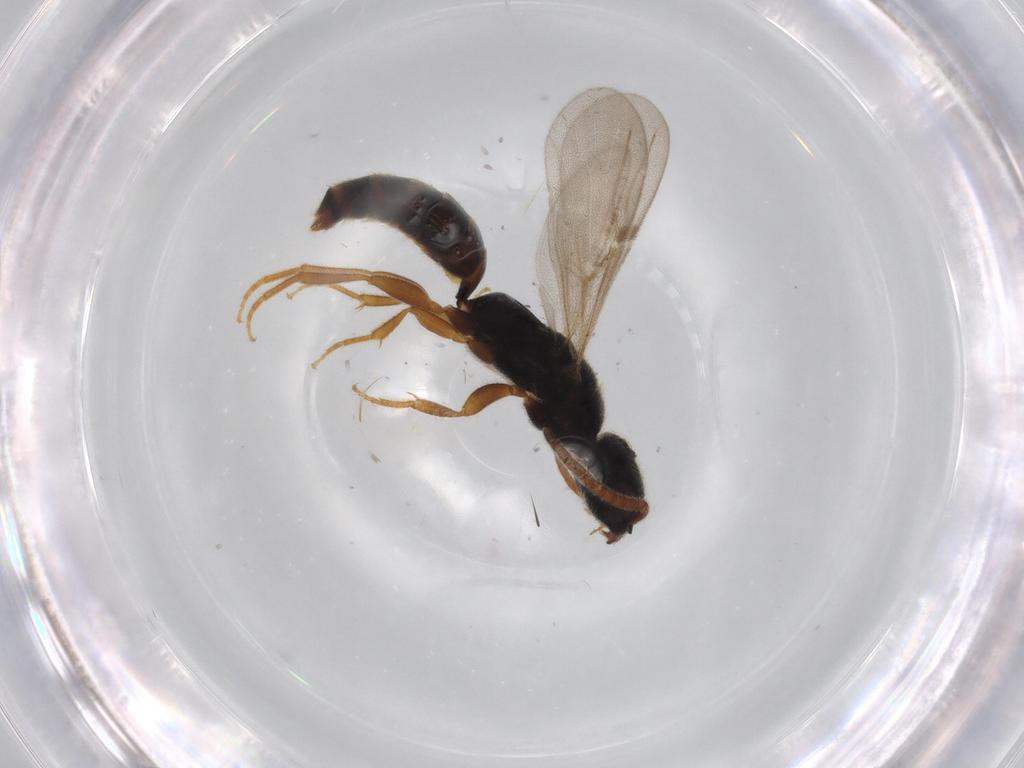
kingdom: Animalia
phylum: Arthropoda
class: Insecta
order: Hymenoptera
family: Bethylidae
